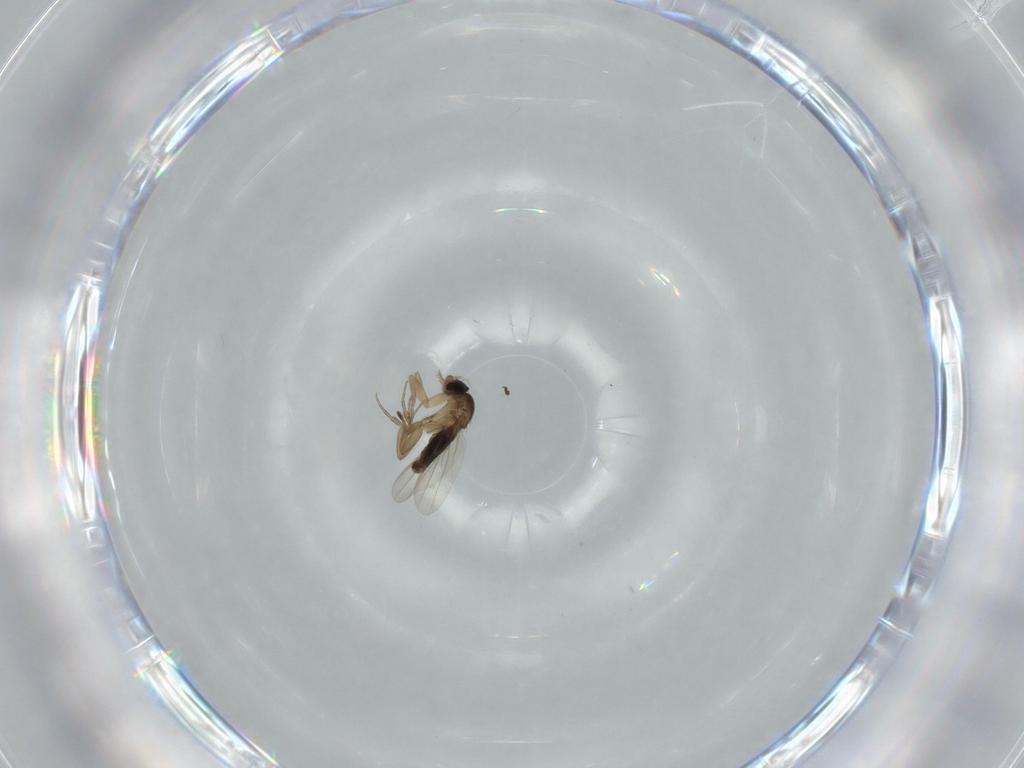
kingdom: Animalia
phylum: Arthropoda
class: Insecta
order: Diptera
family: Phoridae
